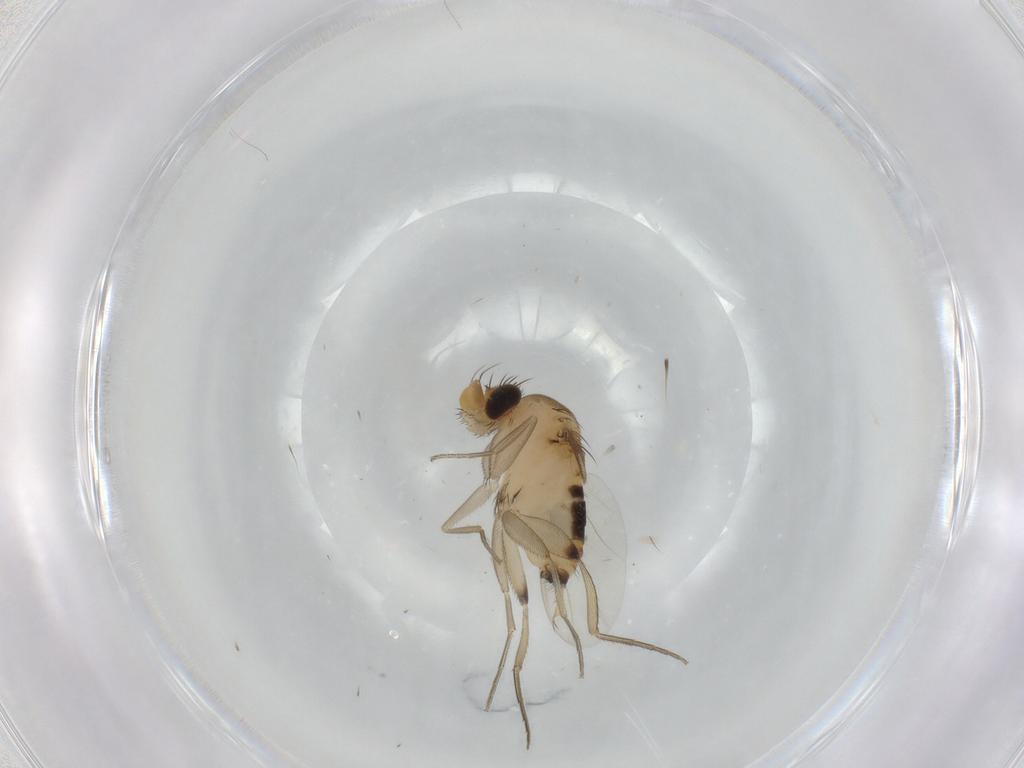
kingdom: Animalia
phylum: Arthropoda
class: Insecta
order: Diptera
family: Phoridae
